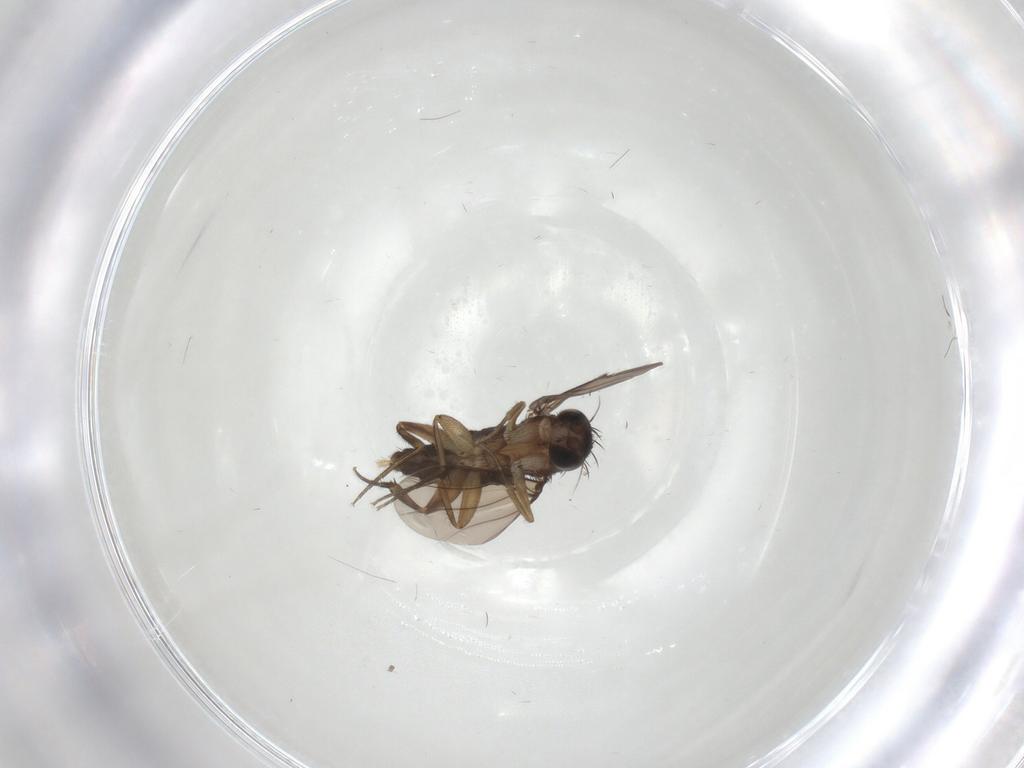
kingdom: Animalia
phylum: Arthropoda
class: Insecta
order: Diptera
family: Phoridae
